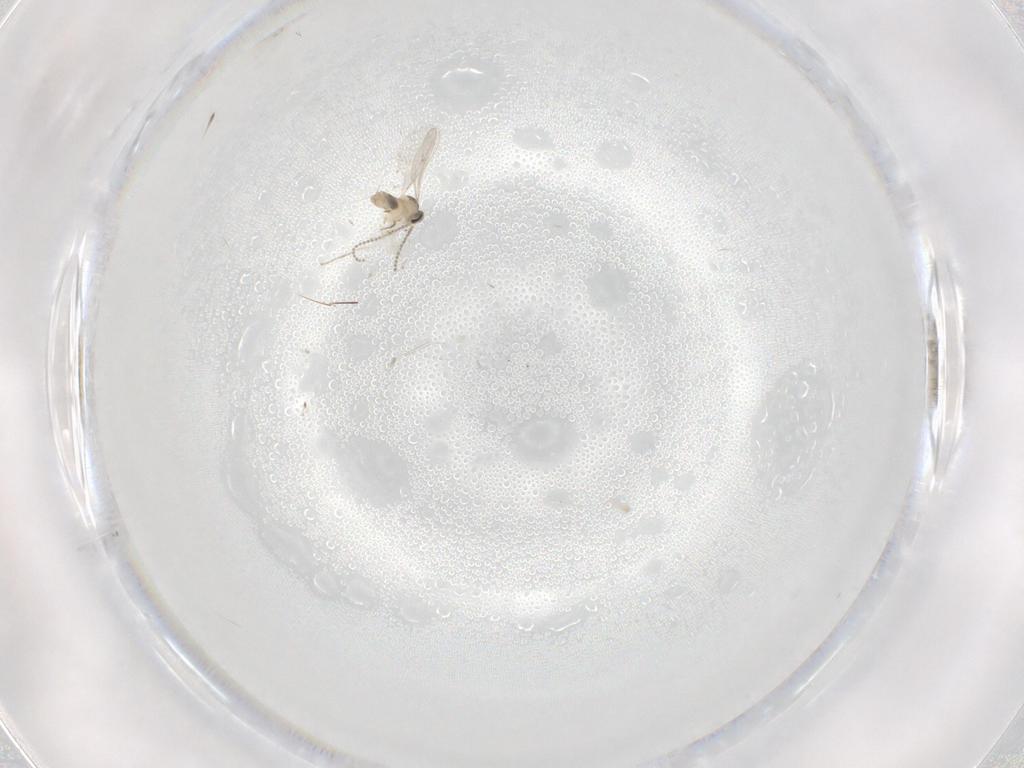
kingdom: Animalia
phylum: Arthropoda
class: Insecta
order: Diptera
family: Cecidomyiidae
